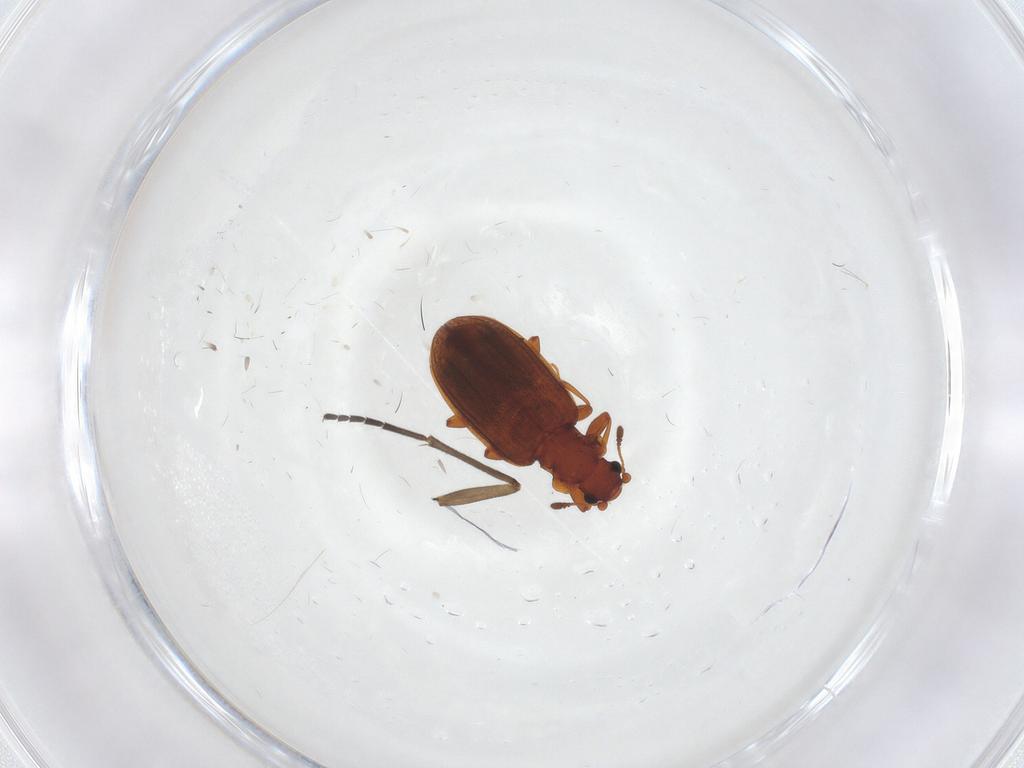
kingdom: Animalia
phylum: Arthropoda
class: Insecta
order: Coleoptera
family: Latridiidae
